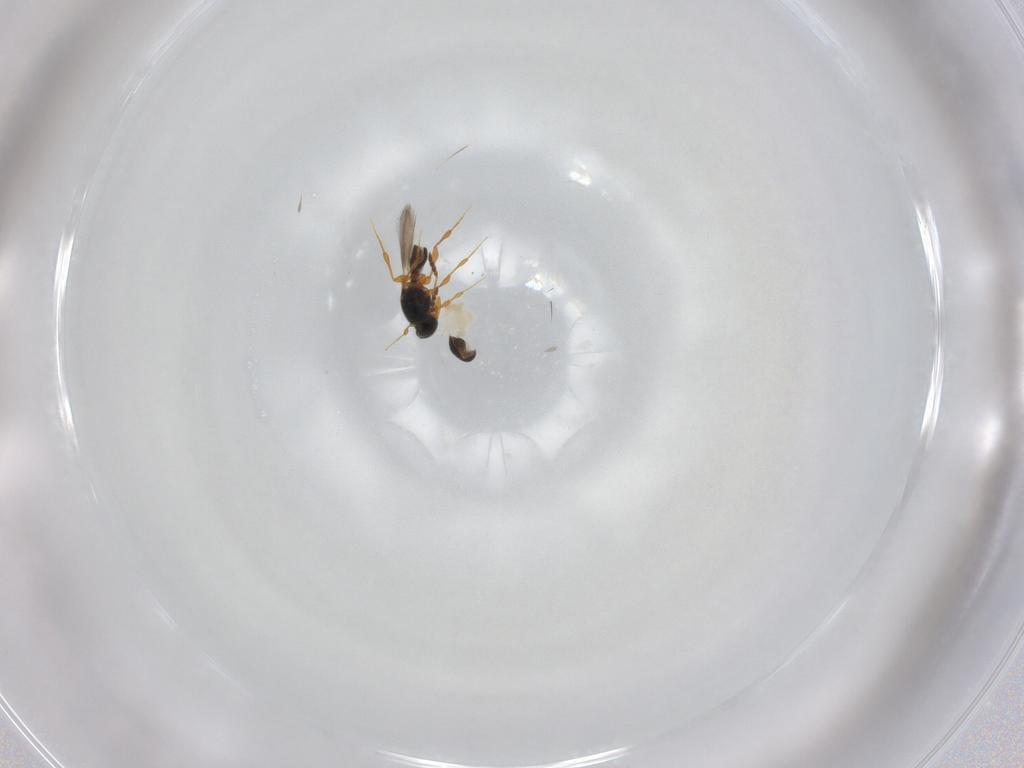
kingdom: Animalia
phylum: Arthropoda
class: Insecta
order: Hymenoptera
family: Platygastridae
